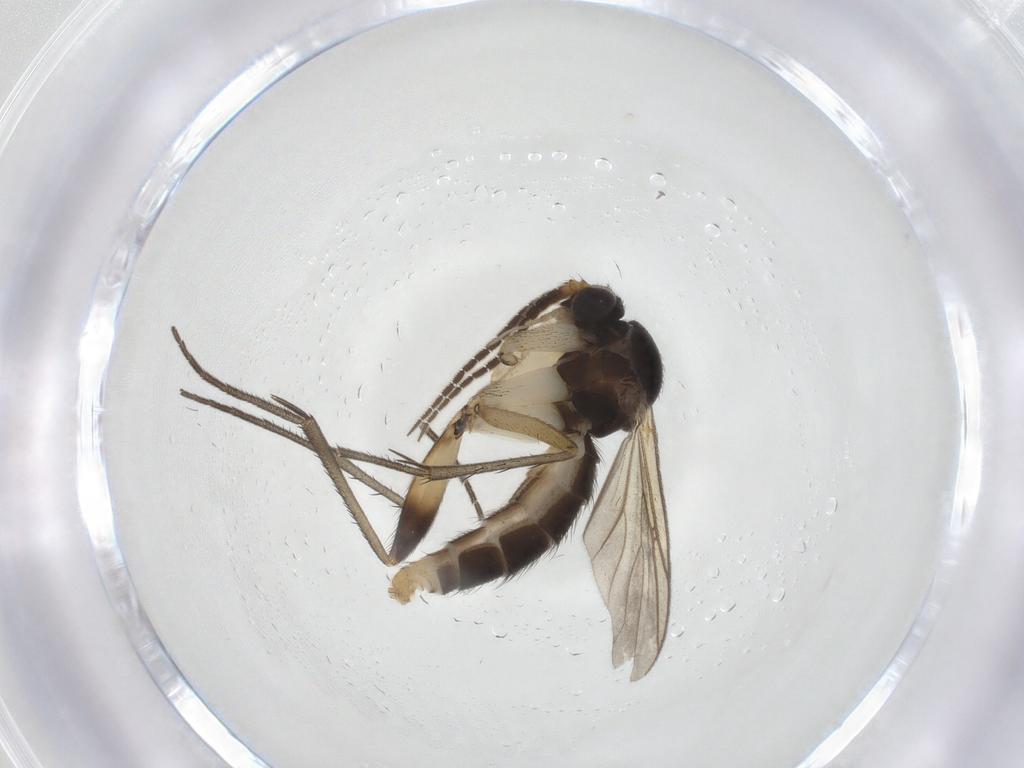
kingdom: Animalia
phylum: Arthropoda
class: Insecta
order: Diptera
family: Mycetophilidae
